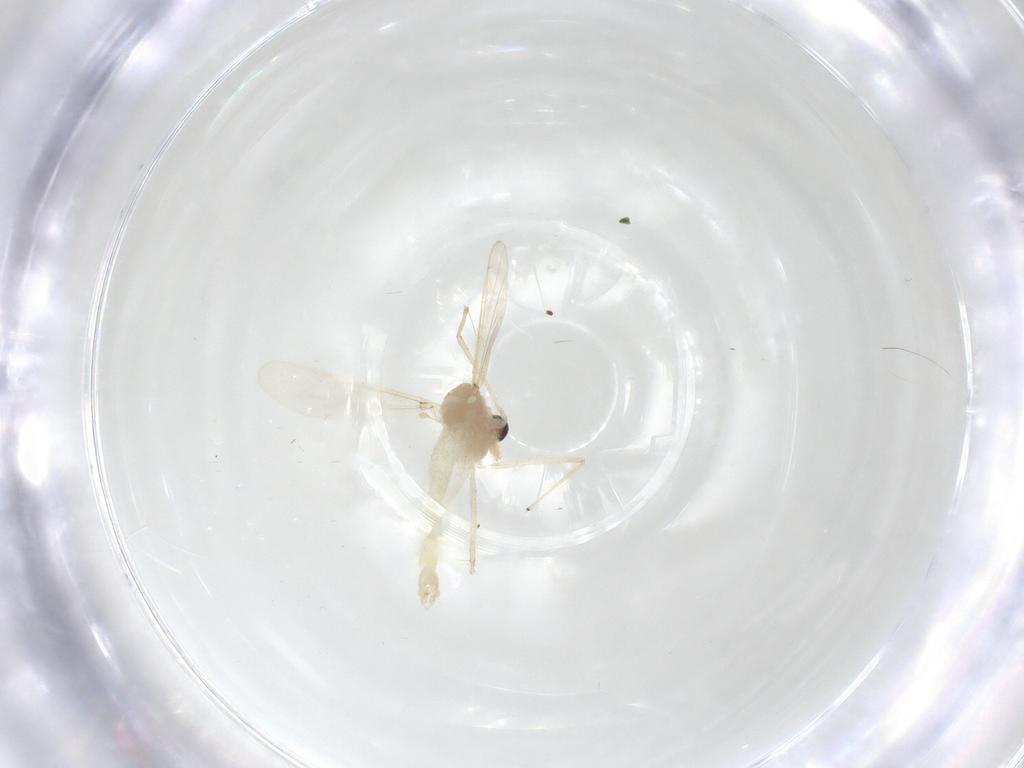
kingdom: Animalia
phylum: Arthropoda
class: Insecta
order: Diptera
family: Chironomidae
